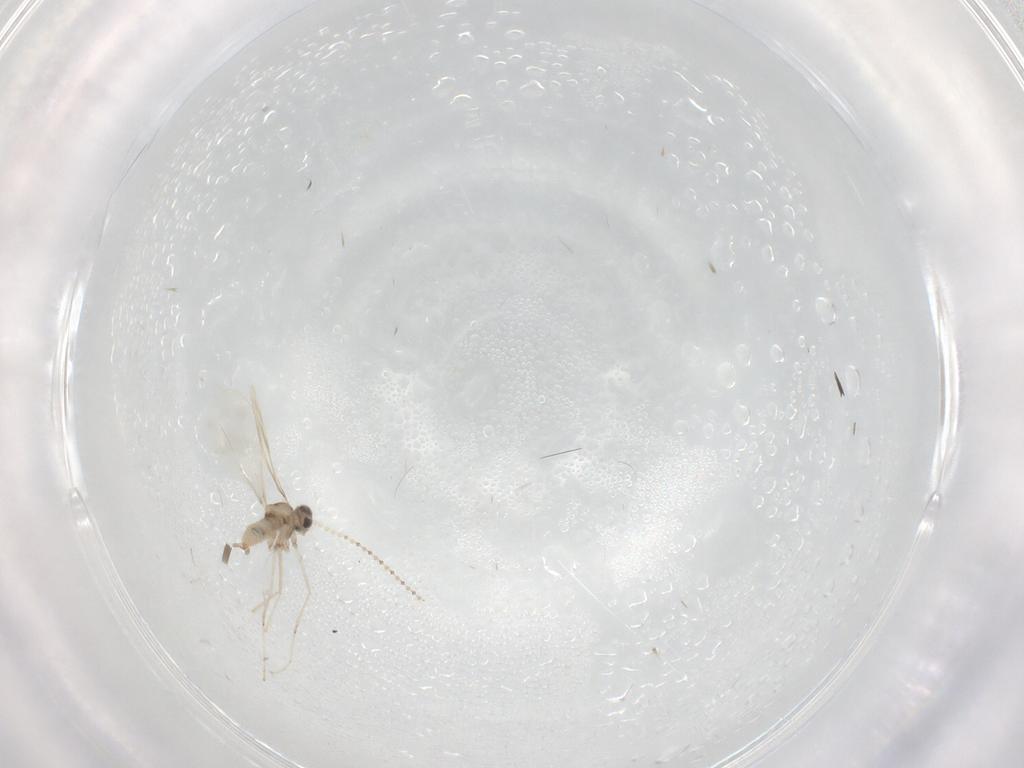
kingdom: Animalia
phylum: Arthropoda
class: Insecta
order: Diptera
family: Cecidomyiidae
